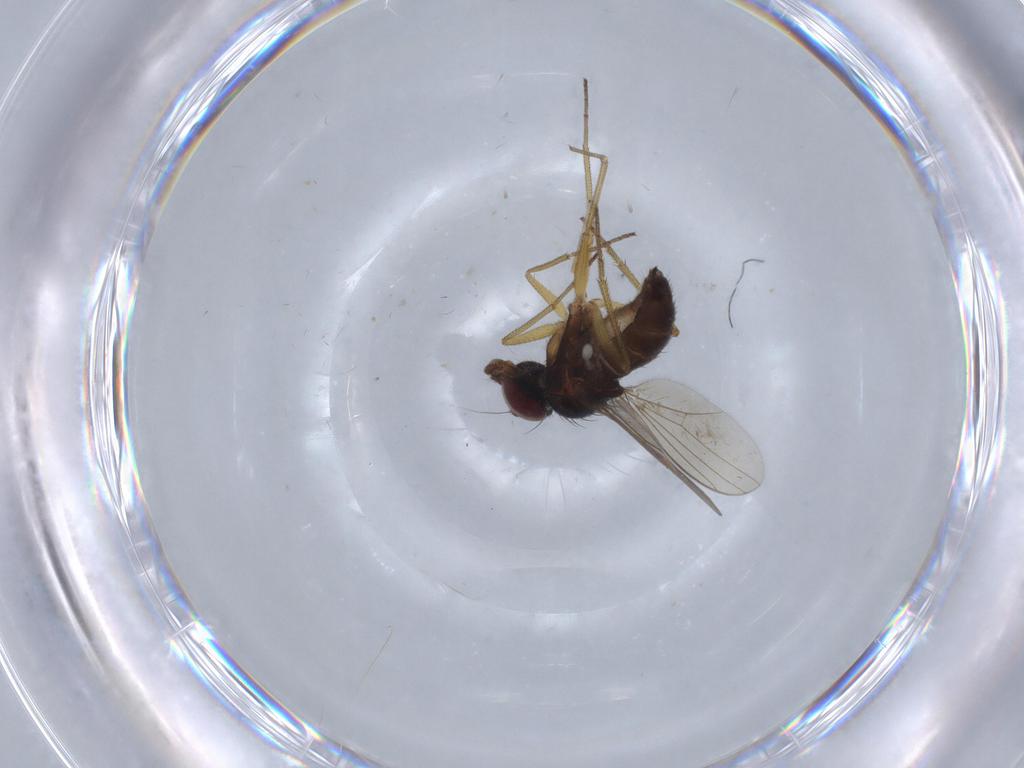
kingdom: Animalia
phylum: Arthropoda
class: Insecta
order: Diptera
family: Dolichopodidae
